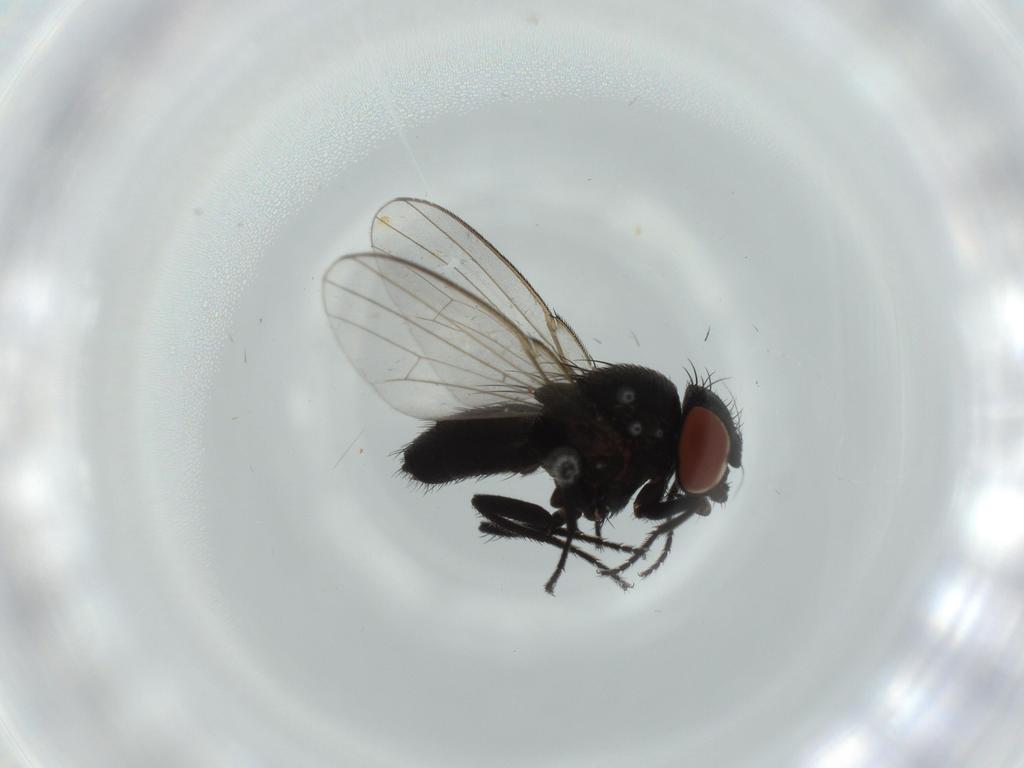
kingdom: Animalia
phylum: Arthropoda
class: Insecta
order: Diptera
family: Milichiidae
